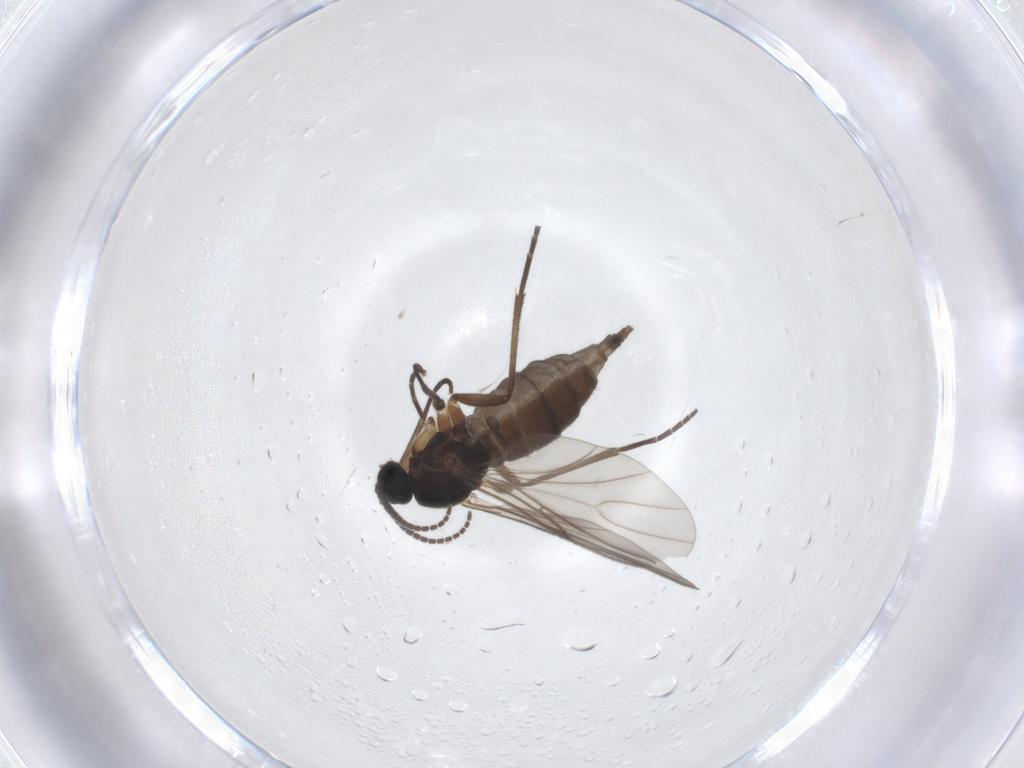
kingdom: Animalia
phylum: Arthropoda
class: Insecta
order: Diptera
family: Sciaridae
